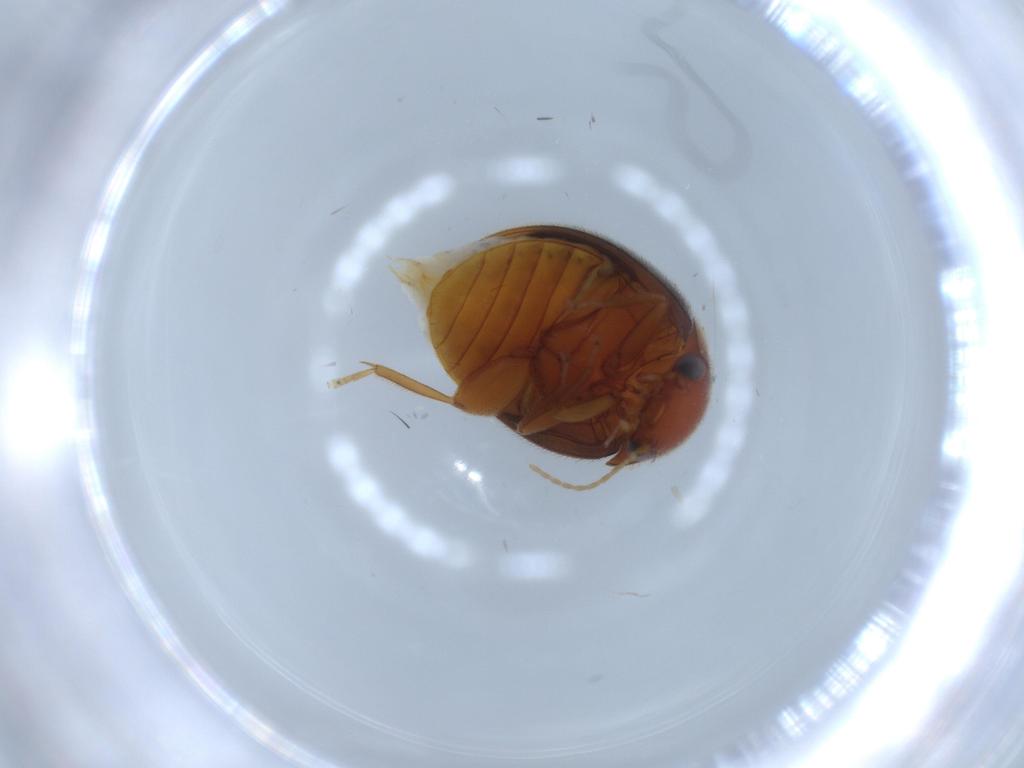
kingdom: Animalia
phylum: Arthropoda
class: Insecta
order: Coleoptera
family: Scirtidae
